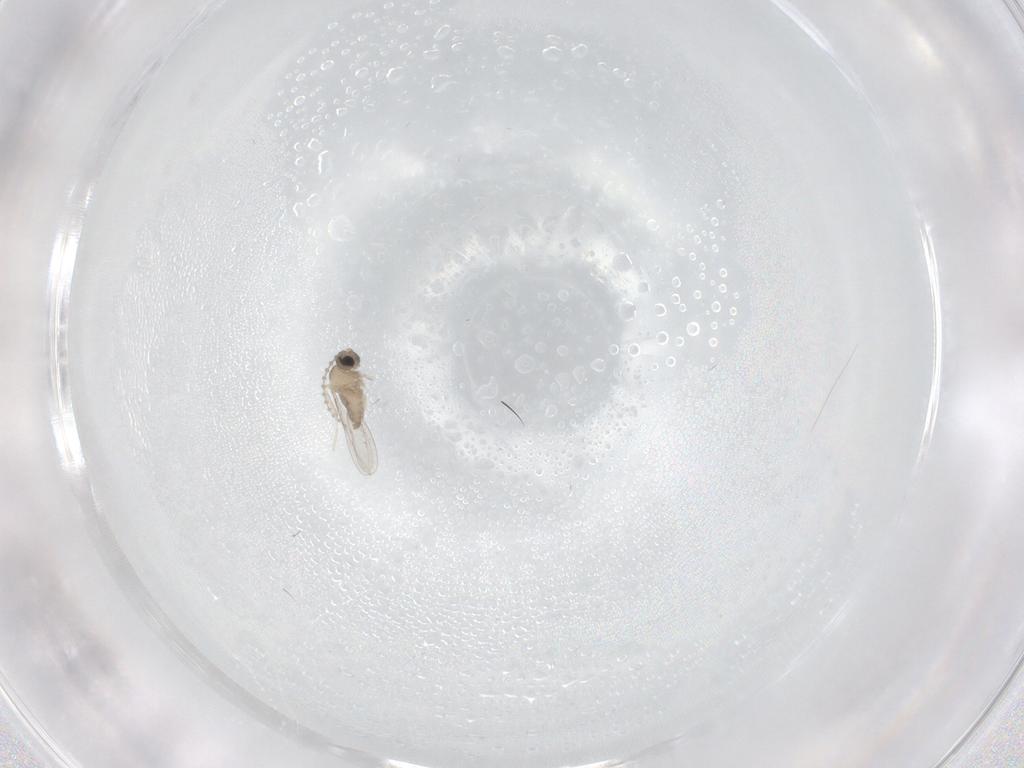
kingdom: Animalia
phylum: Arthropoda
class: Insecta
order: Diptera
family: Cecidomyiidae
